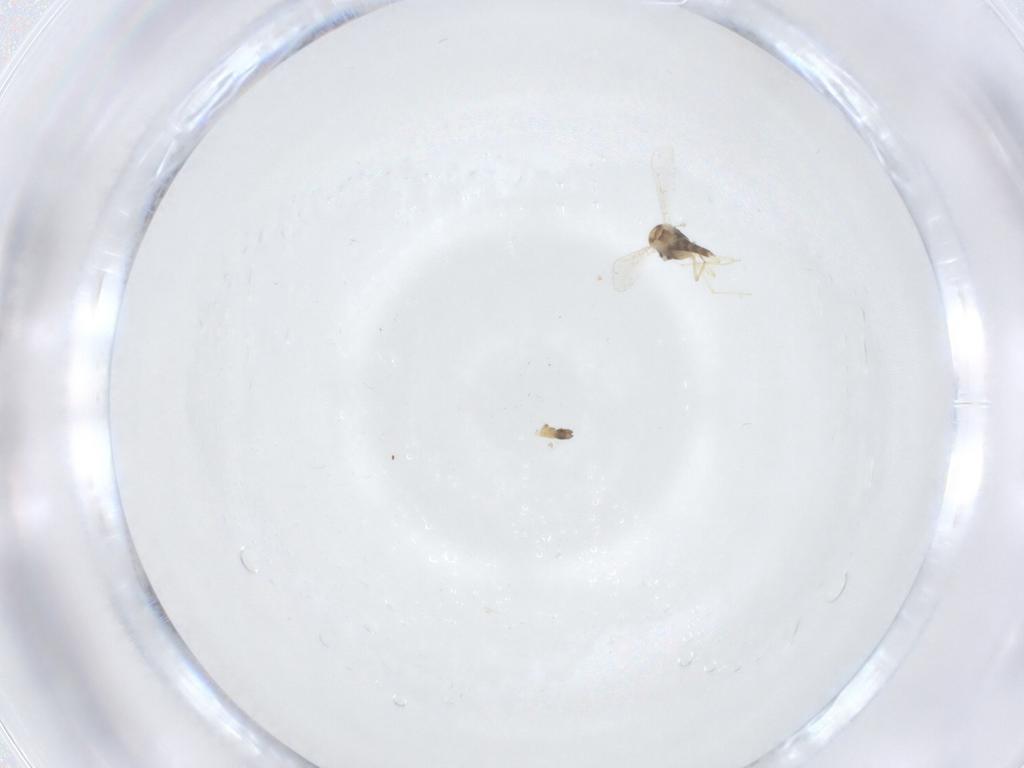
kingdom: Animalia
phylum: Arthropoda
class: Insecta
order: Diptera
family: Chironomidae
